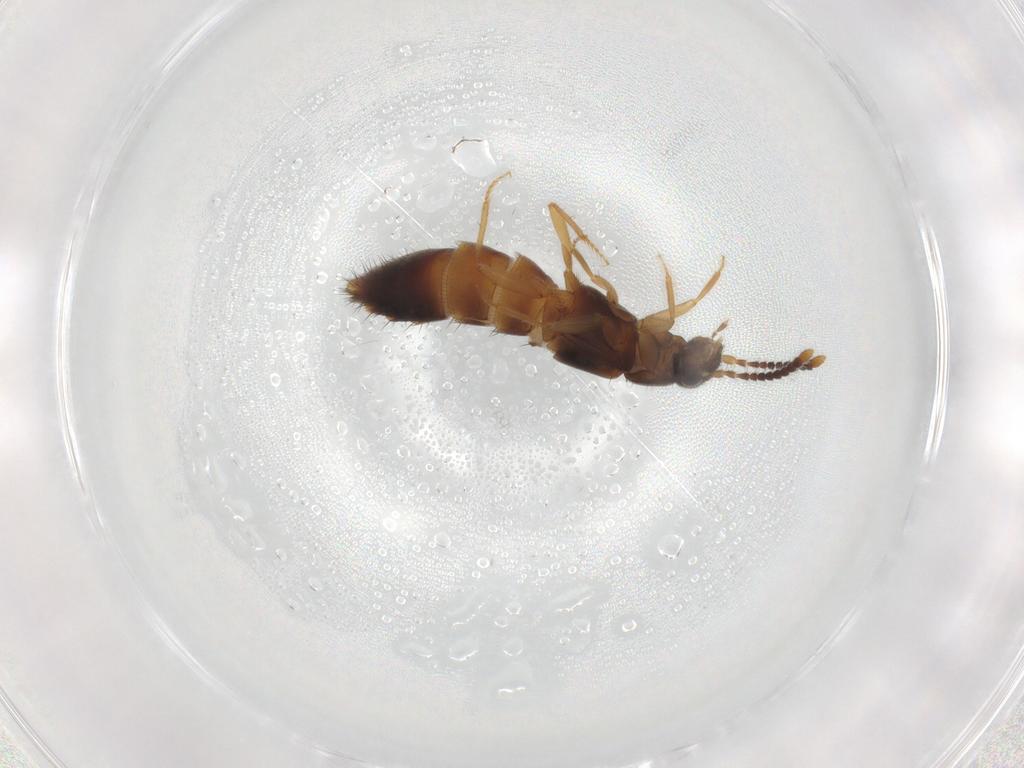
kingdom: Animalia
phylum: Arthropoda
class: Insecta
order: Coleoptera
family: Staphylinidae
